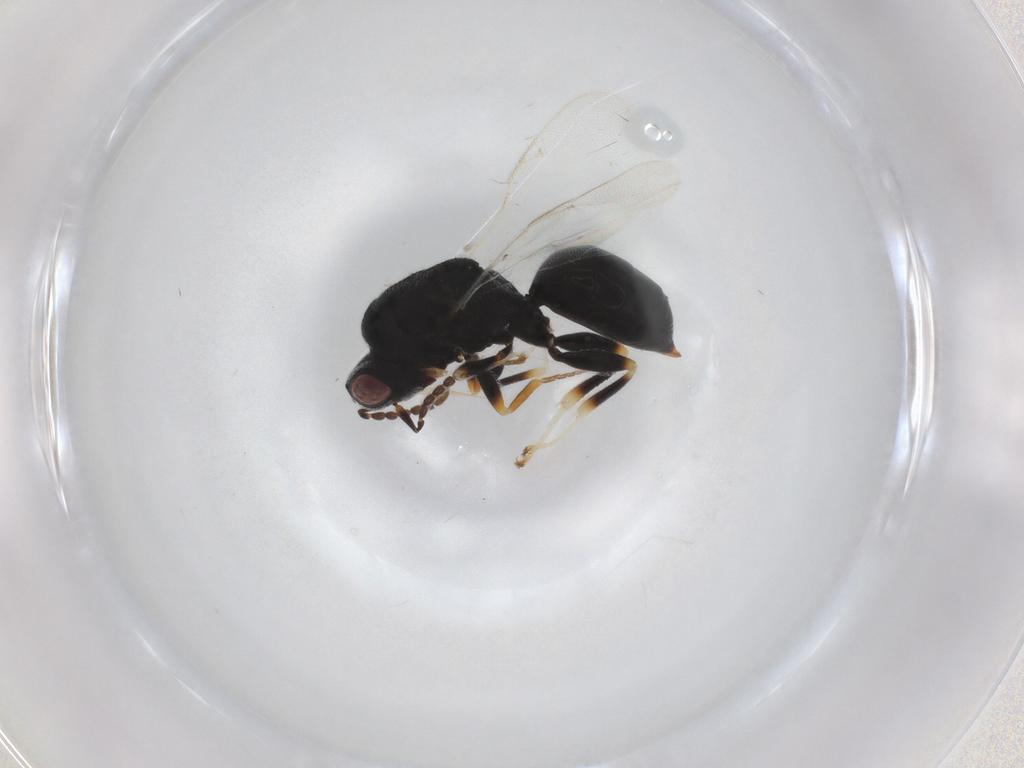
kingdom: Animalia
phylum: Arthropoda
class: Insecta
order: Hymenoptera
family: Eurytomidae
